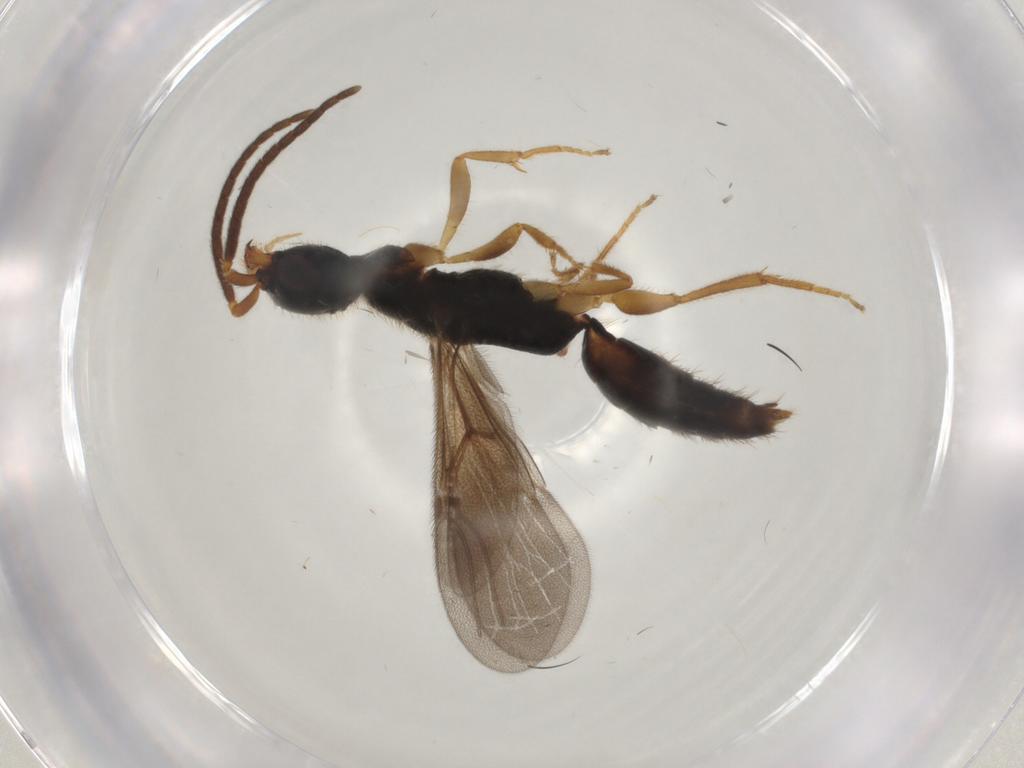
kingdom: Animalia
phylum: Arthropoda
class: Insecta
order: Hymenoptera
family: Bethylidae
